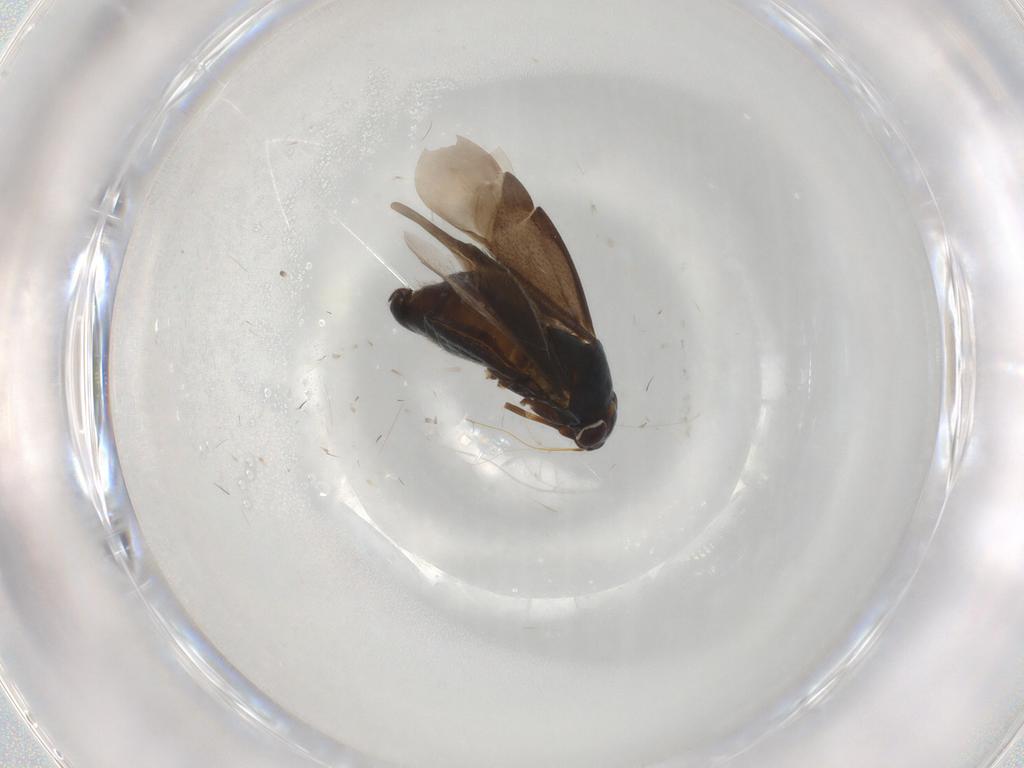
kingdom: Animalia
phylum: Arthropoda
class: Insecta
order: Hemiptera
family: Miridae
